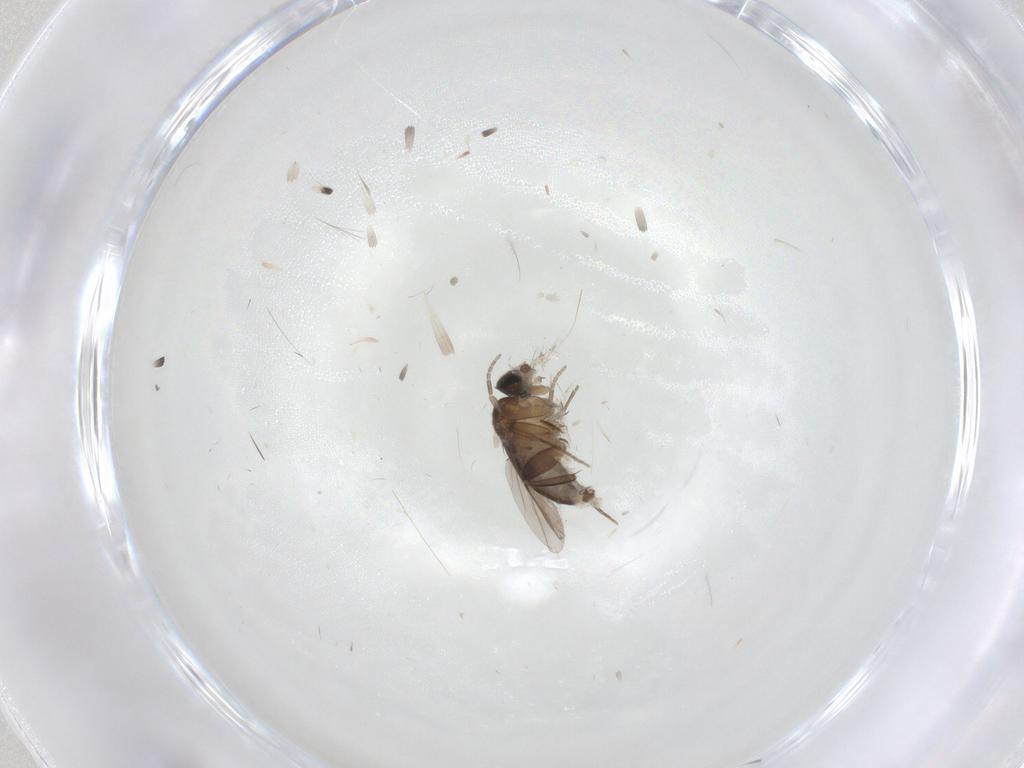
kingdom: Animalia
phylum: Arthropoda
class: Insecta
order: Diptera
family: Phoridae
